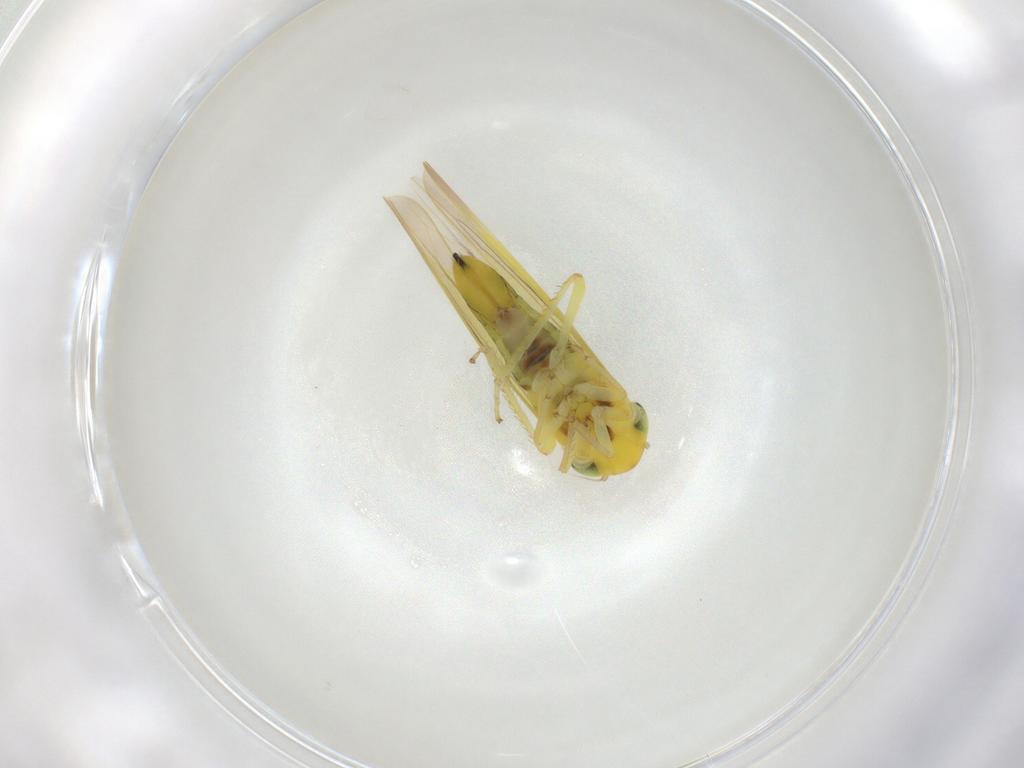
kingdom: Animalia
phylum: Arthropoda
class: Insecta
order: Hemiptera
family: Cicadellidae
